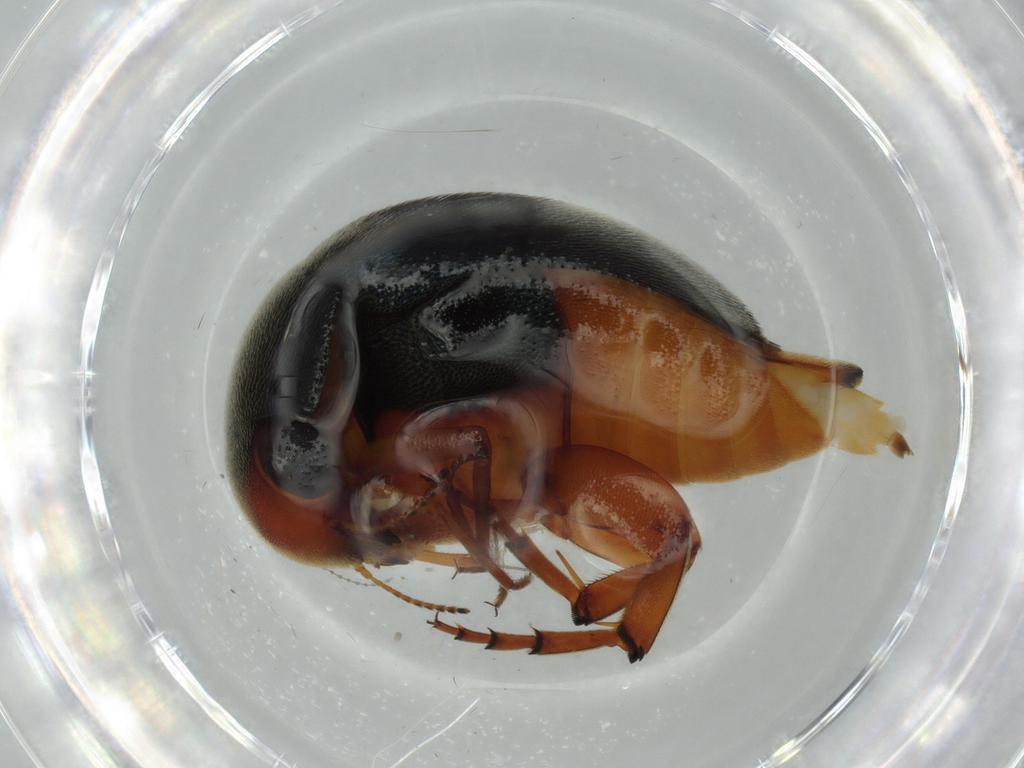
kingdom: Animalia
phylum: Arthropoda
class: Insecta
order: Coleoptera
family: Mordellidae
